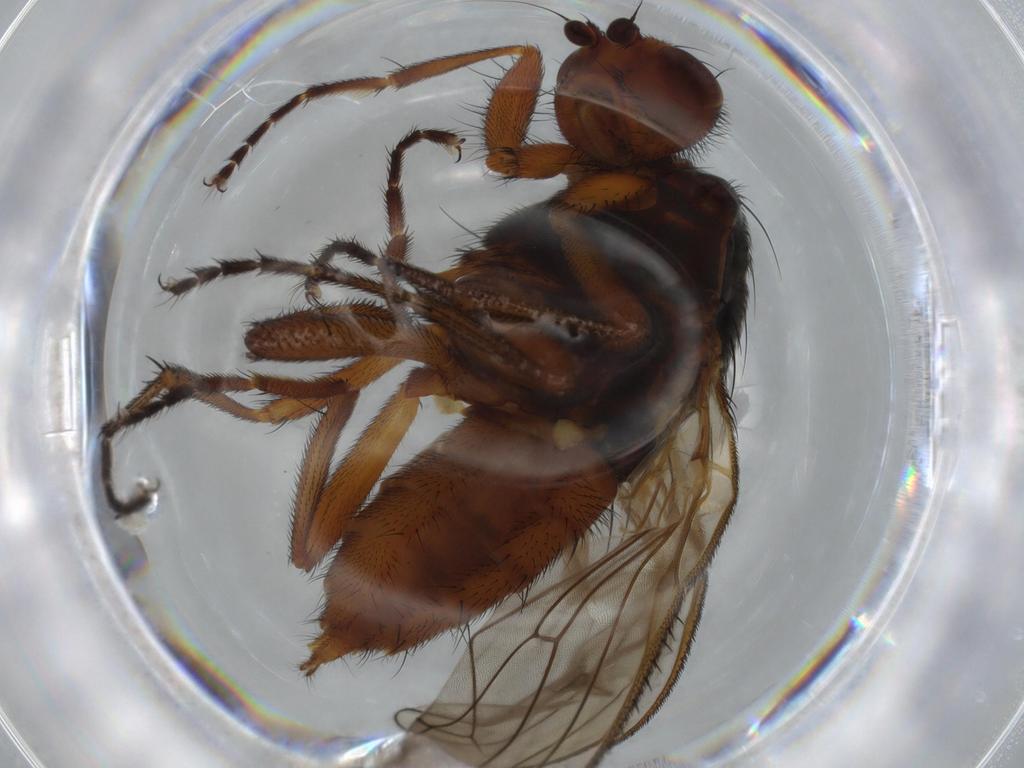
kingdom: Animalia
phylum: Arthropoda
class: Insecta
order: Diptera
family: Heleomyzidae
